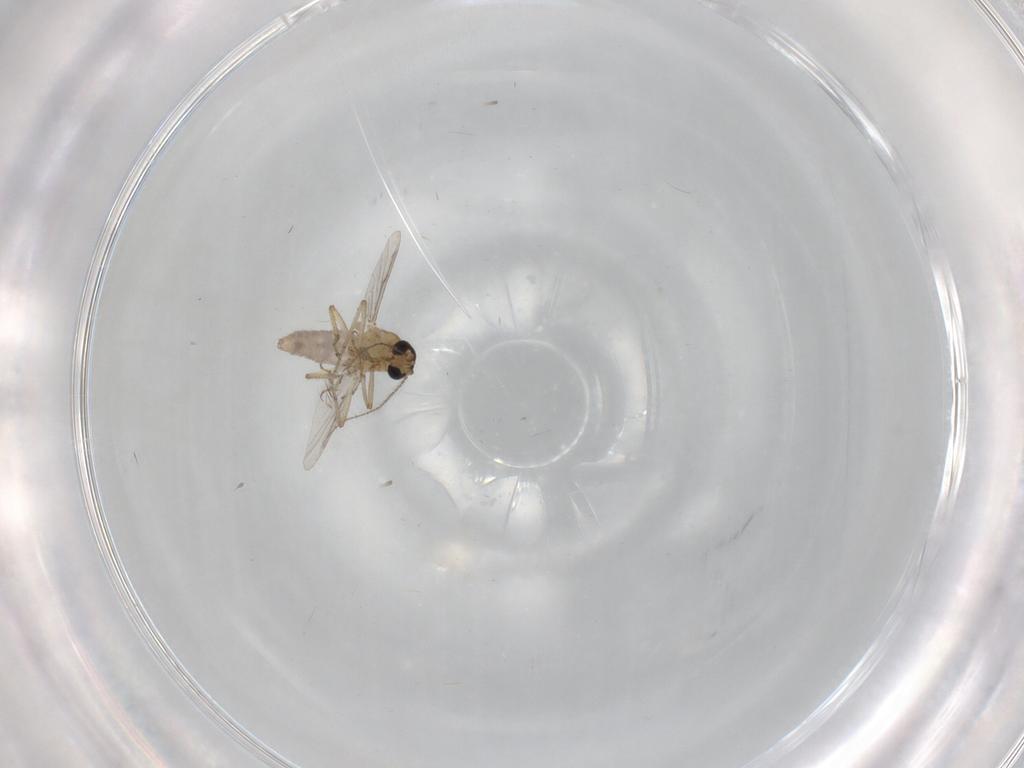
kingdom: Animalia
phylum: Arthropoda
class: Insecta
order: Diptera
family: Ceratopogonidae
